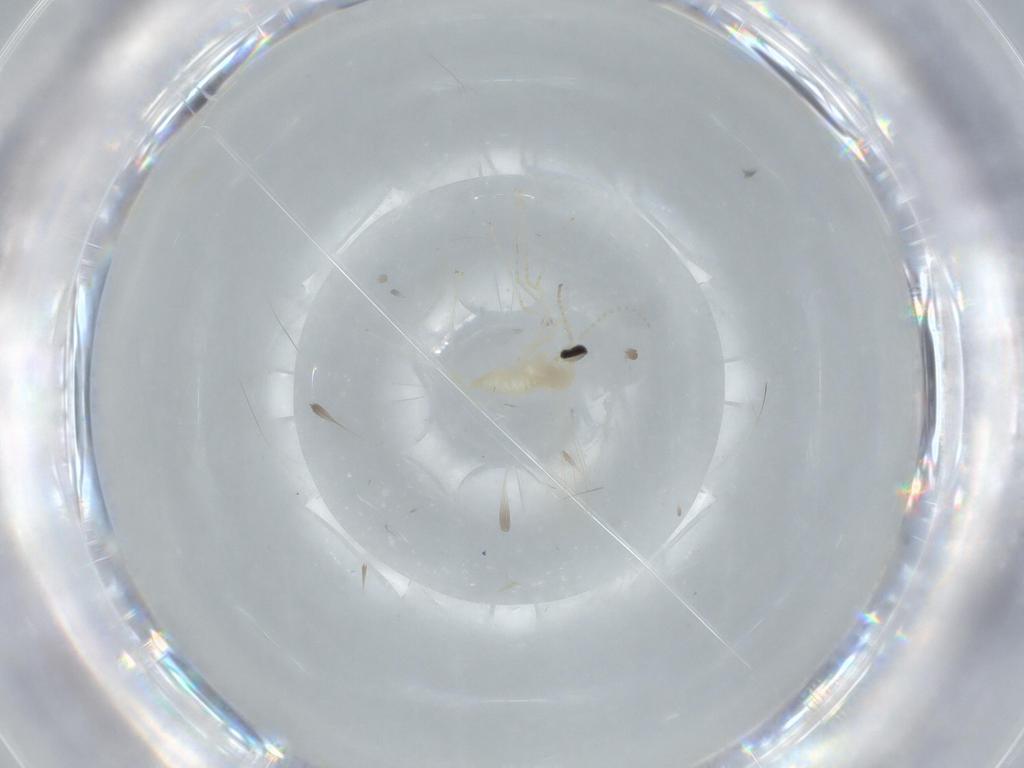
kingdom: Animalia
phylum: Arthropoda
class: Insecta
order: Diptera
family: Cecidomyiidae
